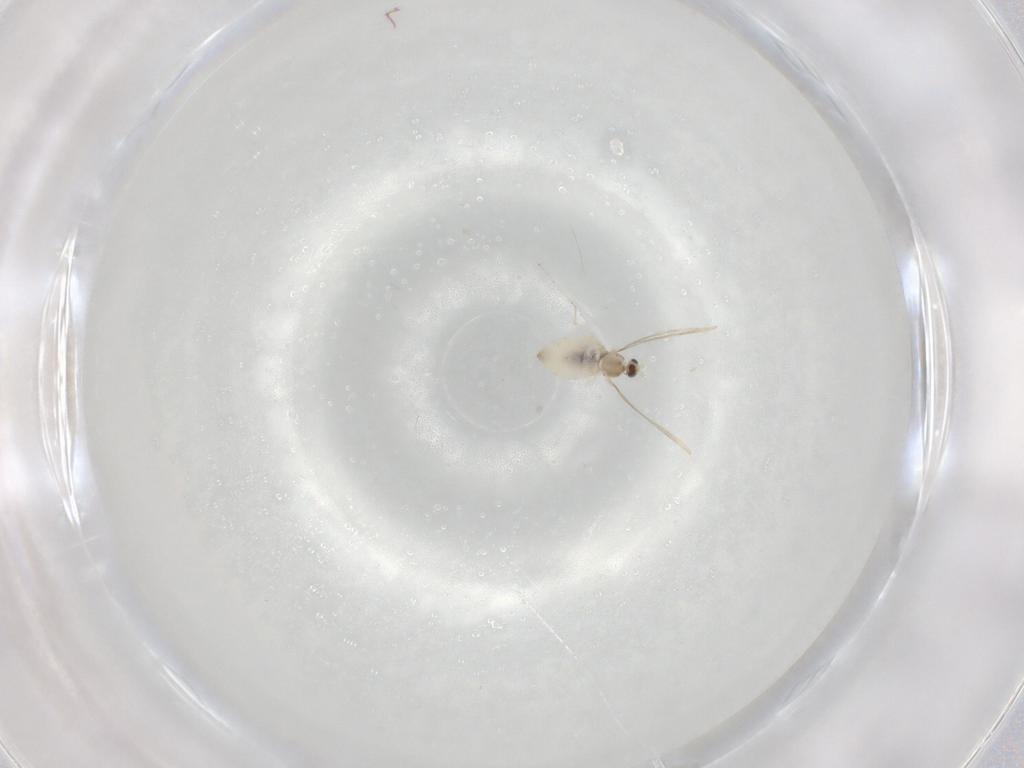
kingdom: Animalia
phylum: Arthropoda
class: Insecta
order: Diptera
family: Cecidomyiidae
